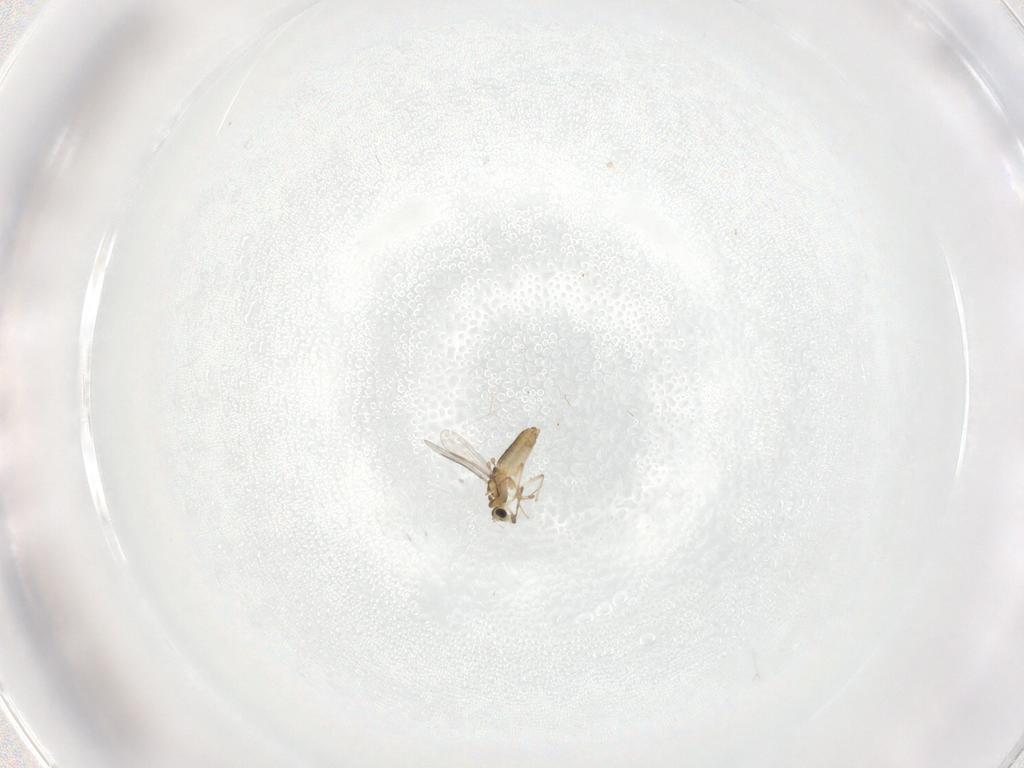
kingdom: Animalia
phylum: Arthropoda
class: Insecta
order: Diptera
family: Chironomidae
